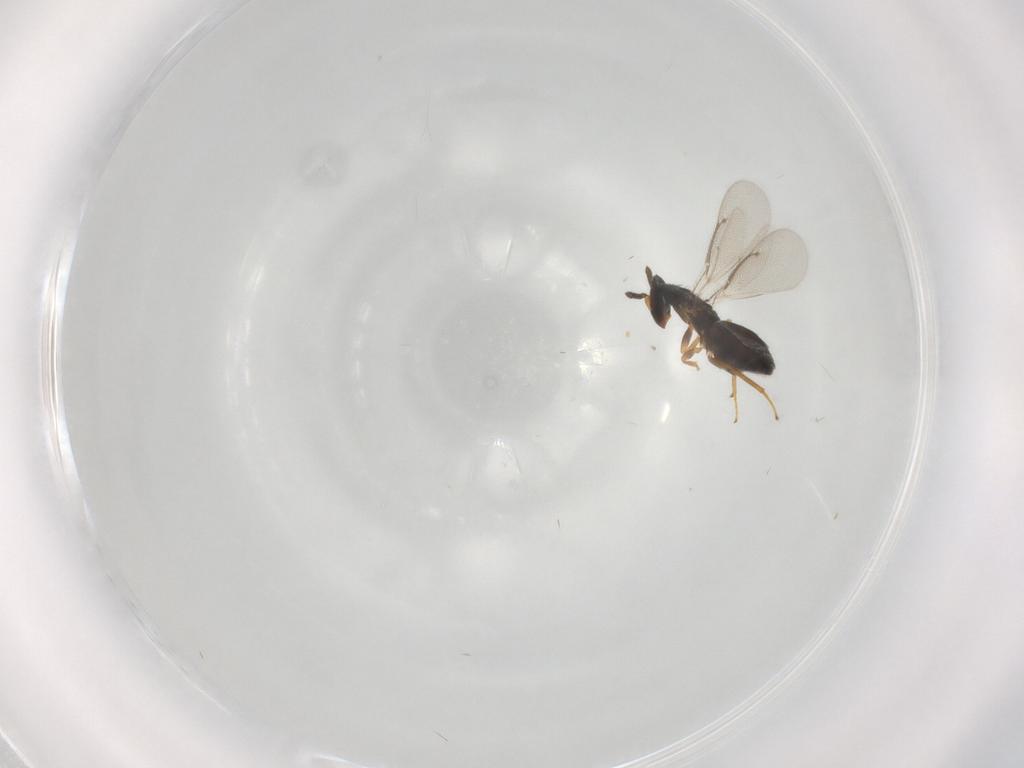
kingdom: Animalia
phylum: Arthropoda
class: Insecta
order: Hymenoptera
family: Eulophidae
